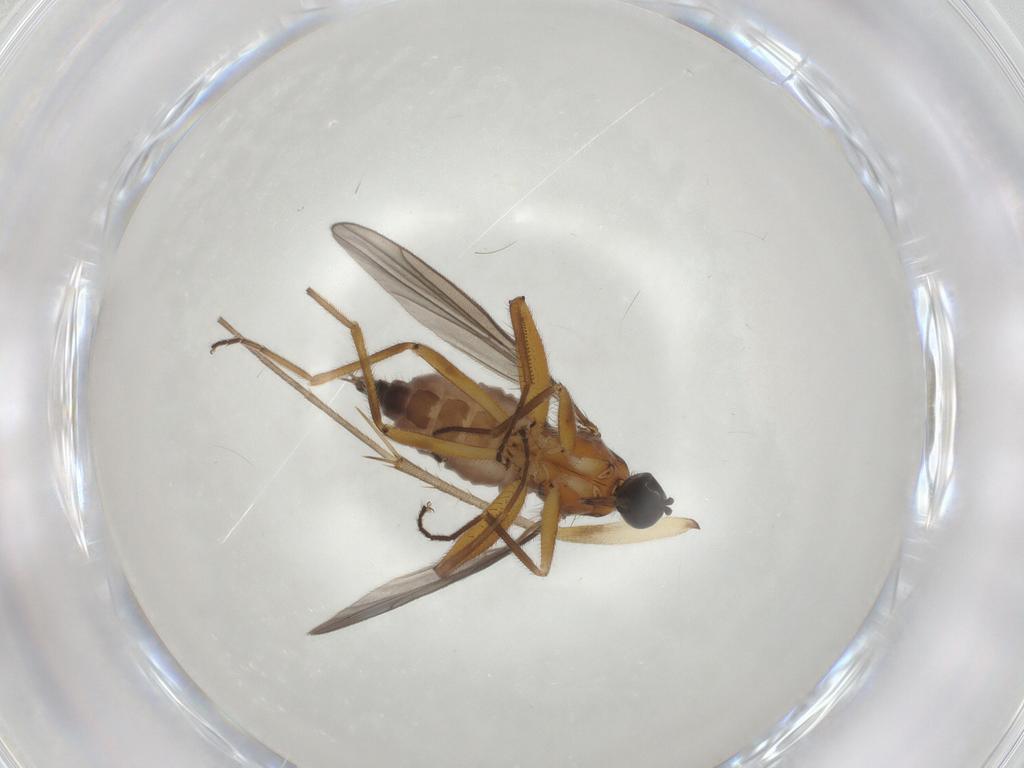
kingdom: Animalia
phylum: Arthropoda
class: Insecta
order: Diptera
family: Hybotidae
